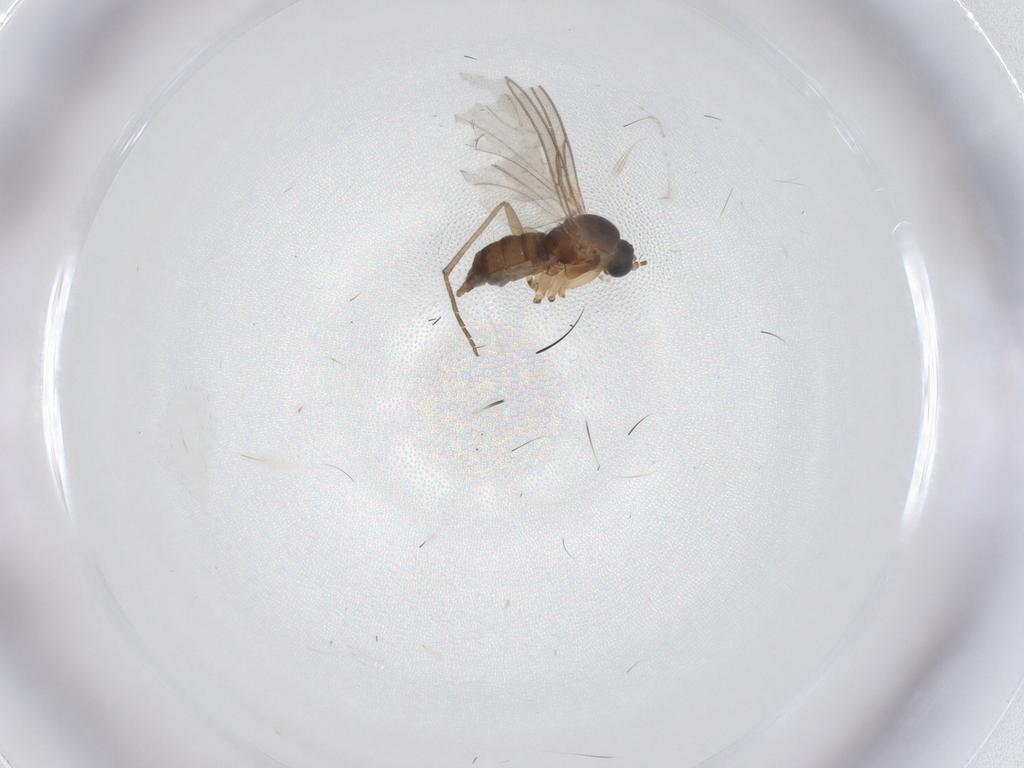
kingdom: Animalia
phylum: Arthropoda
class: Insecta
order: Diptera
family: Sciaridae
